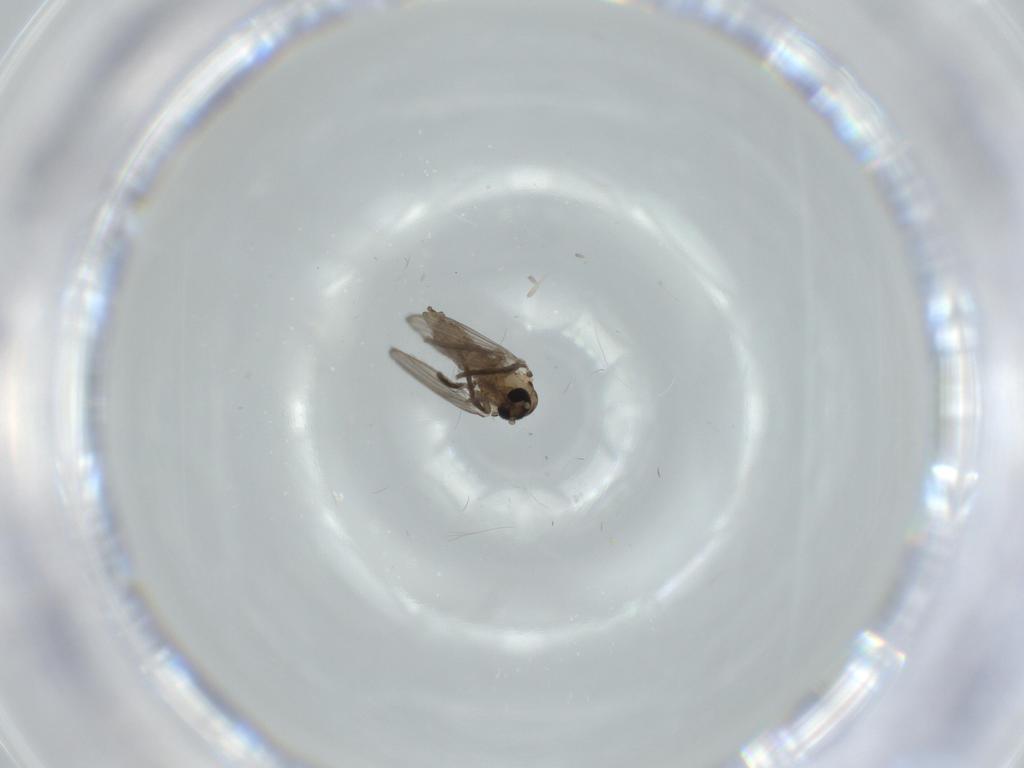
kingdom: Animalia
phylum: Arthropoda
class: Insecta
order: Diptera
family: Psychodidae
